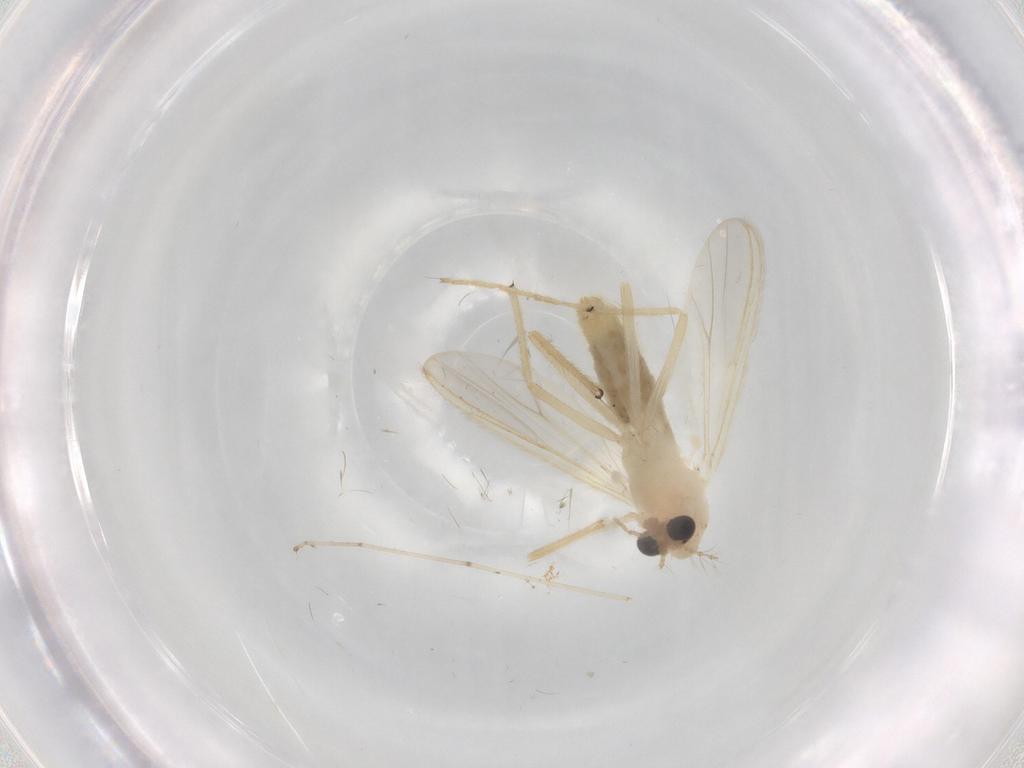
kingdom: Animalia
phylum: Arthropoda
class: Insecta
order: Diptera
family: Chironomidae
